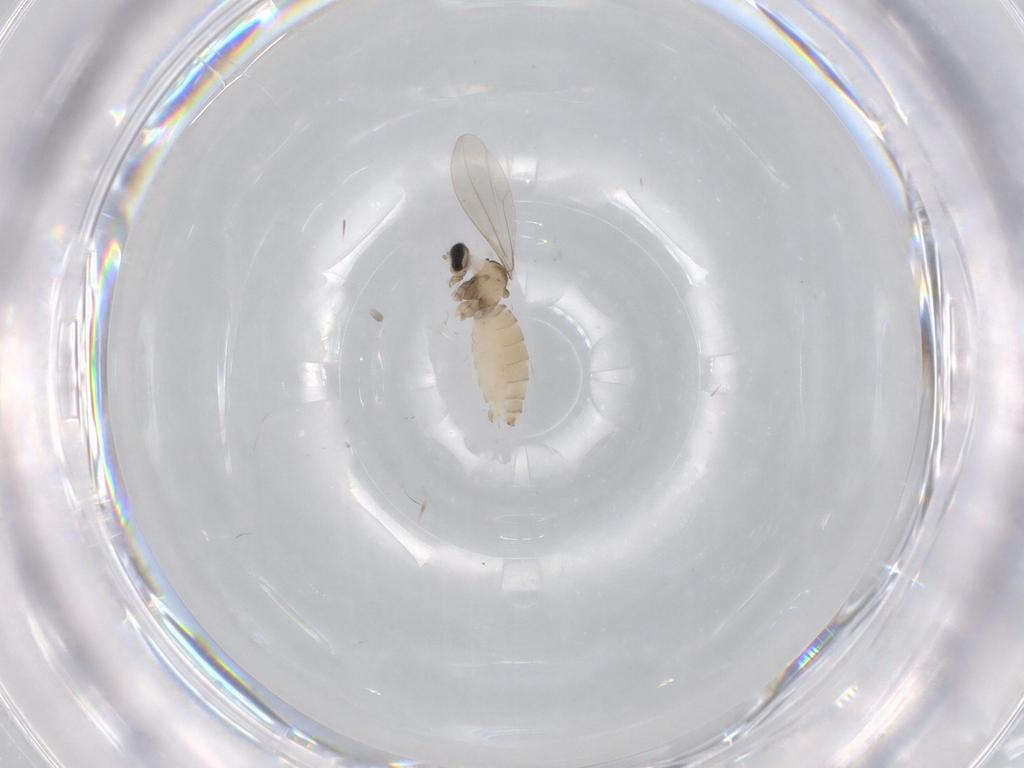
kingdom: Animalia
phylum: Arthropoda
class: Insecta
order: Diptera
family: Cecidomyiidae
